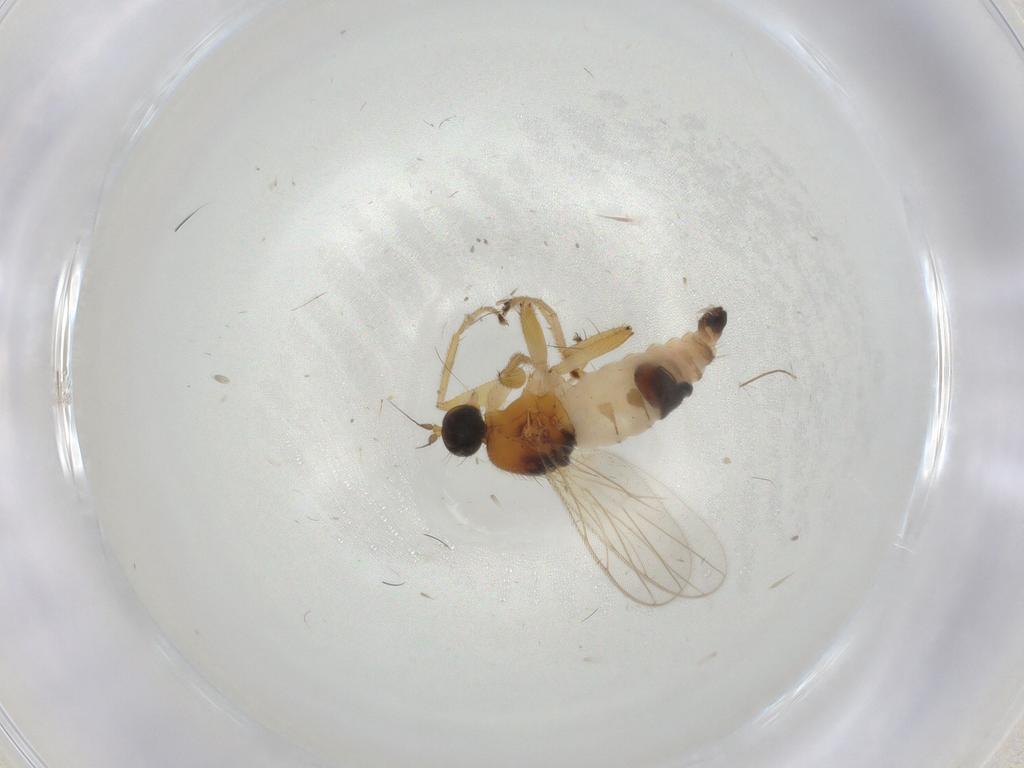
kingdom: Animalia
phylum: Arthropoda
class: Insecta
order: Diptera
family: Hybotidae
